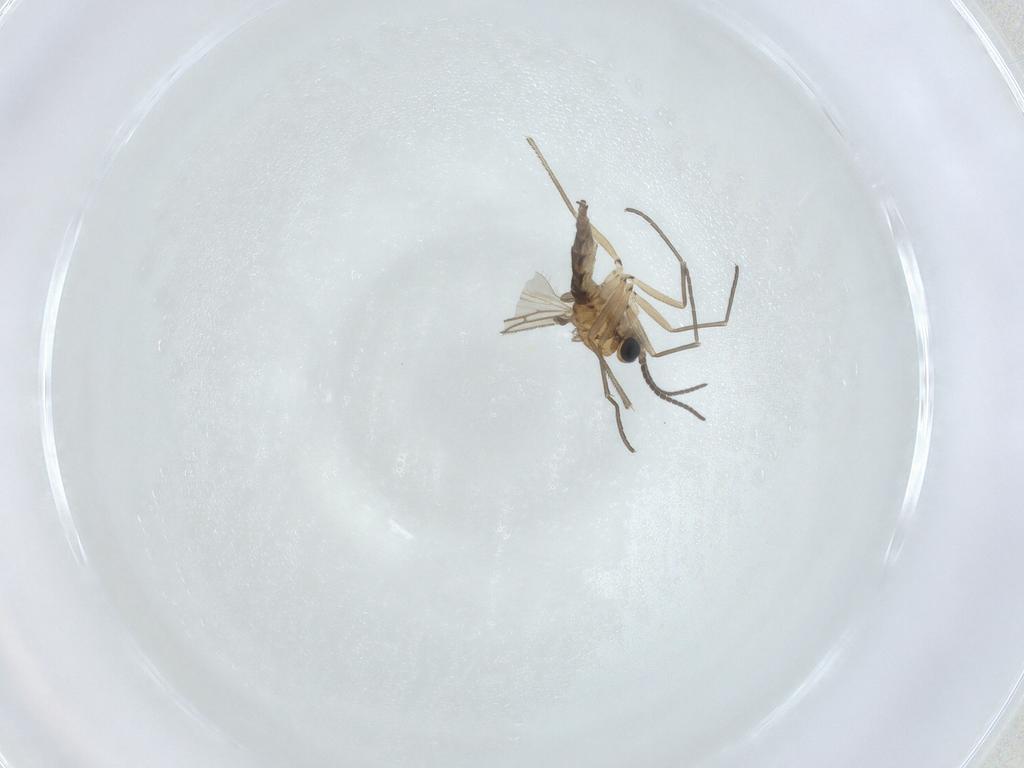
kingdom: Animalia
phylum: Arthropoda
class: Insecta
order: Diptera
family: Sciaridae
